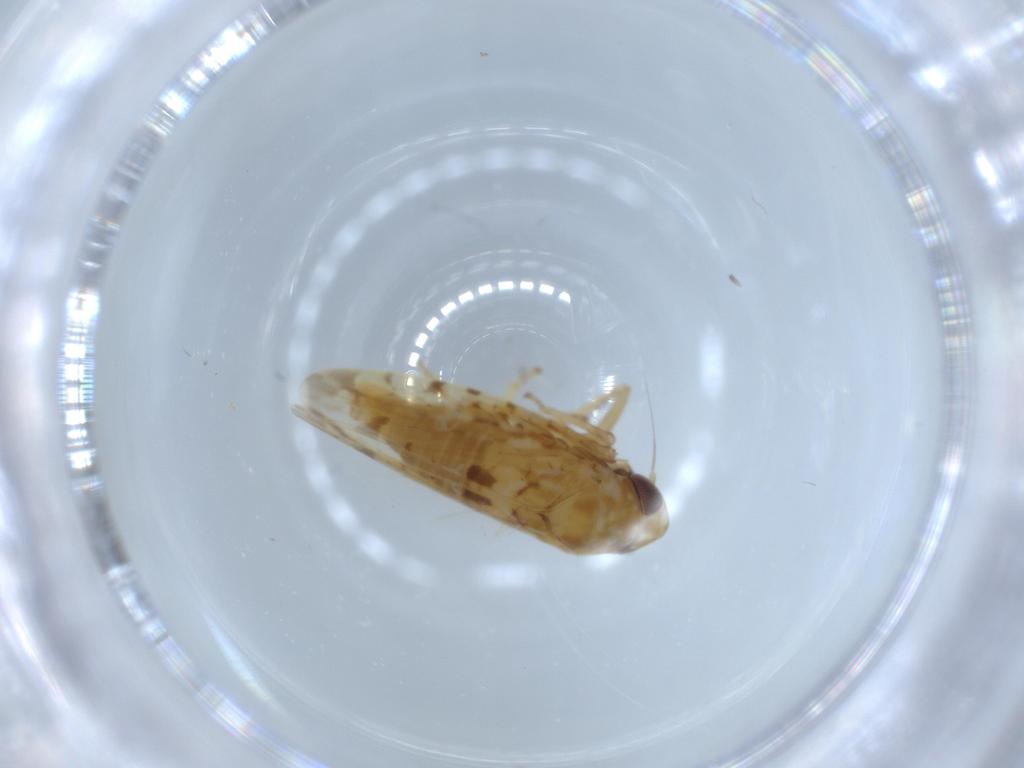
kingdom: Animalia
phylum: Arthropoda
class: Insecta
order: Hemiptera
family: Cicadellidae
